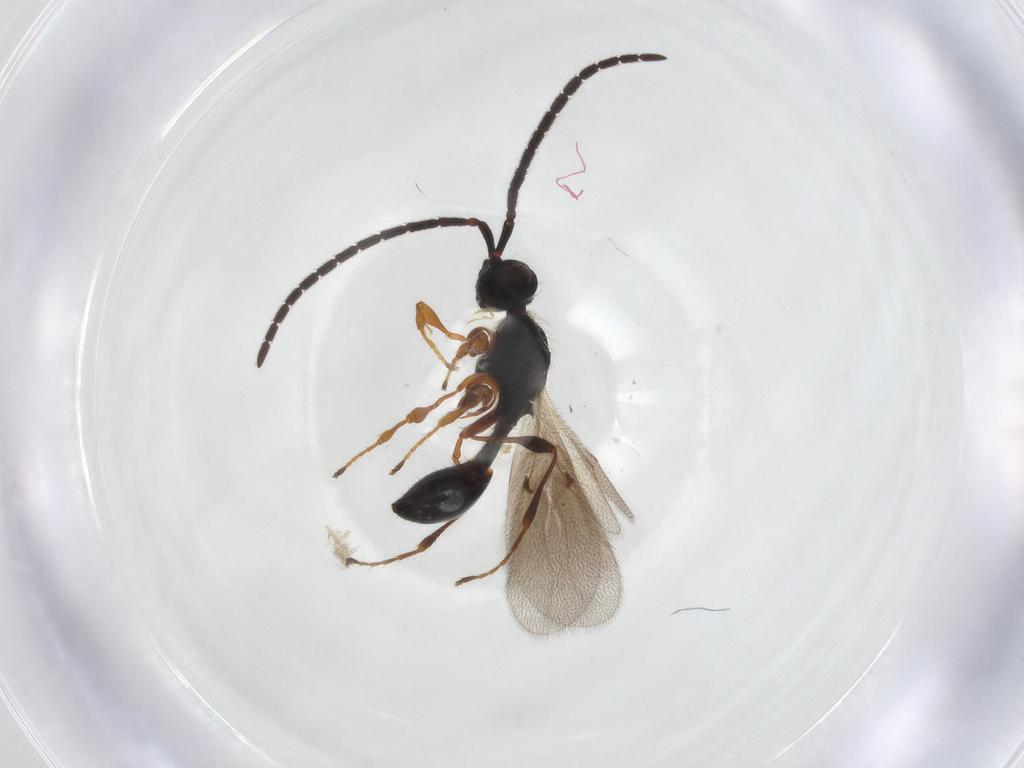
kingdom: Animalia
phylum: Arthropoda
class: Insecta
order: Hymenoptera
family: Diapriidae
